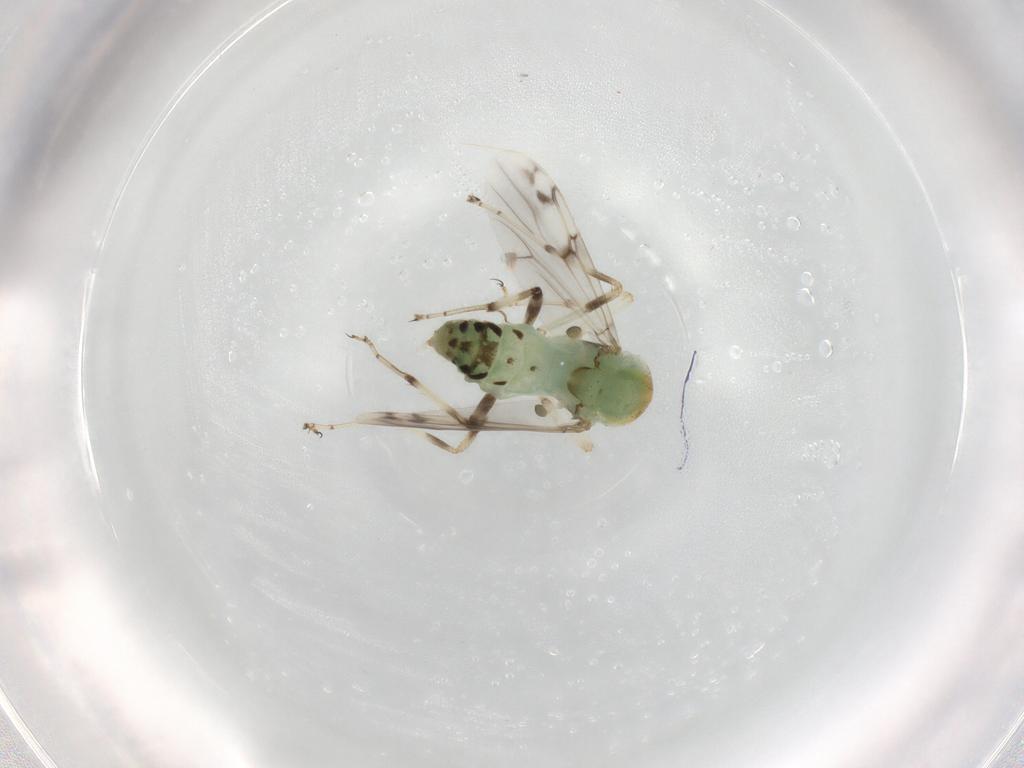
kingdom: Animalia
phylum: Arthropoda
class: Insecta
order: Diptera
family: Ceratopogonidae
